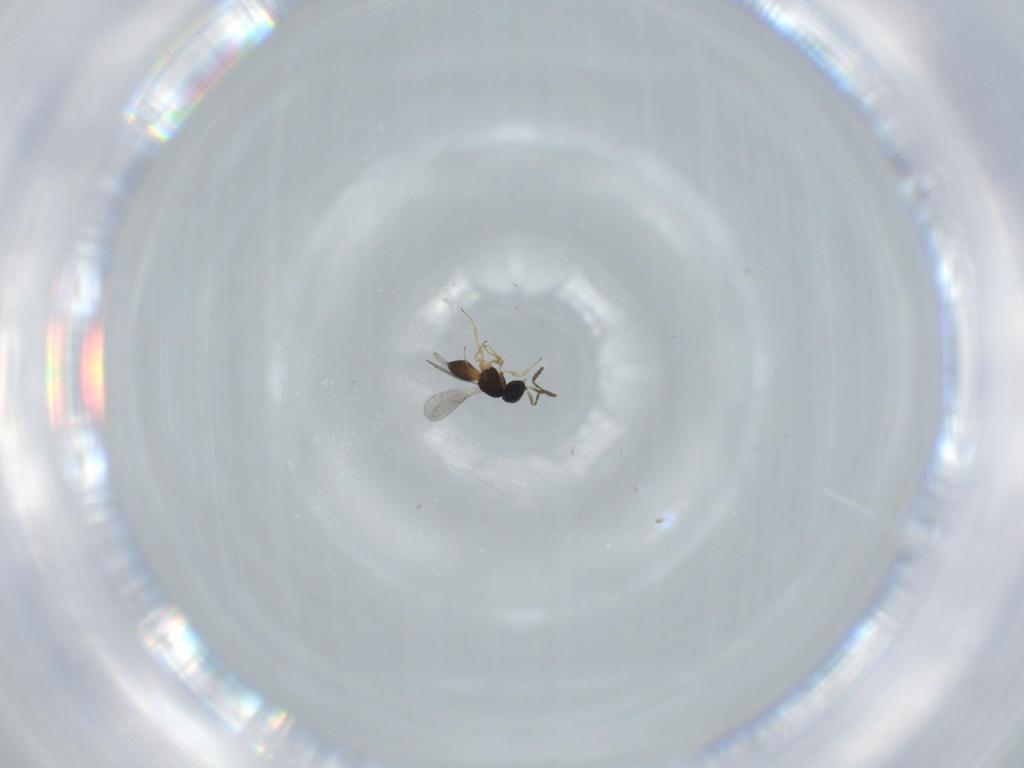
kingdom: Animalia
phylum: Arthropoda
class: Insecta
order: Hymenoptera
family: Scelionidae
